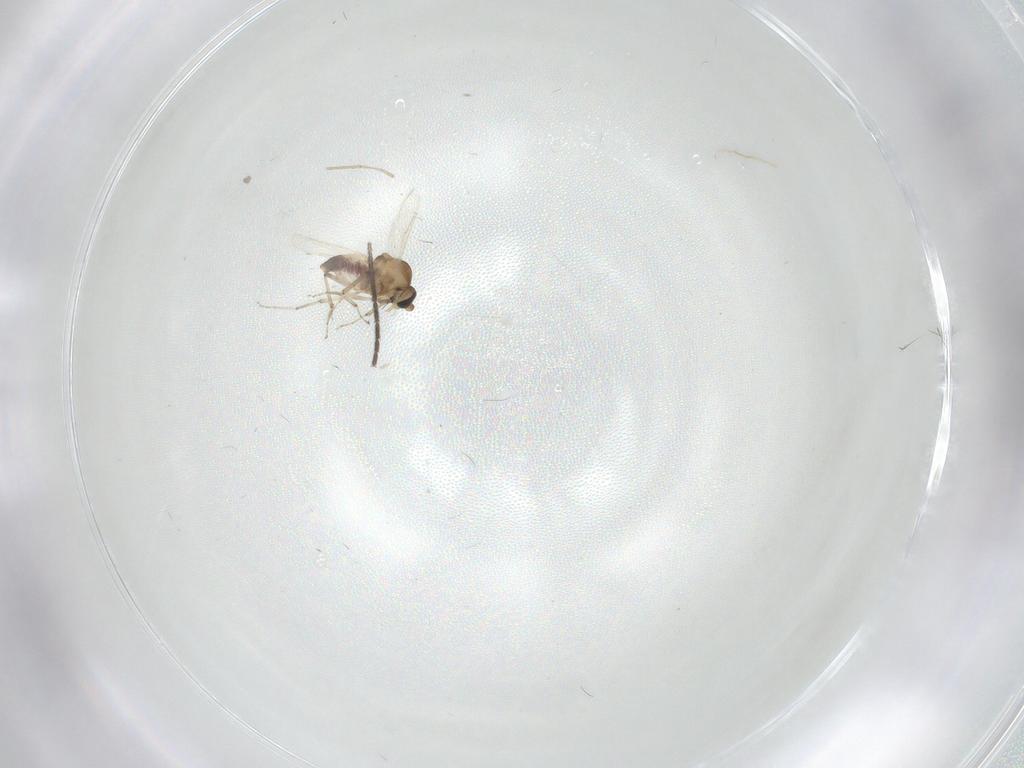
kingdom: Animalia
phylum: Arthropoda
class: Insecta
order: Diptera
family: Cecidomyiidae
